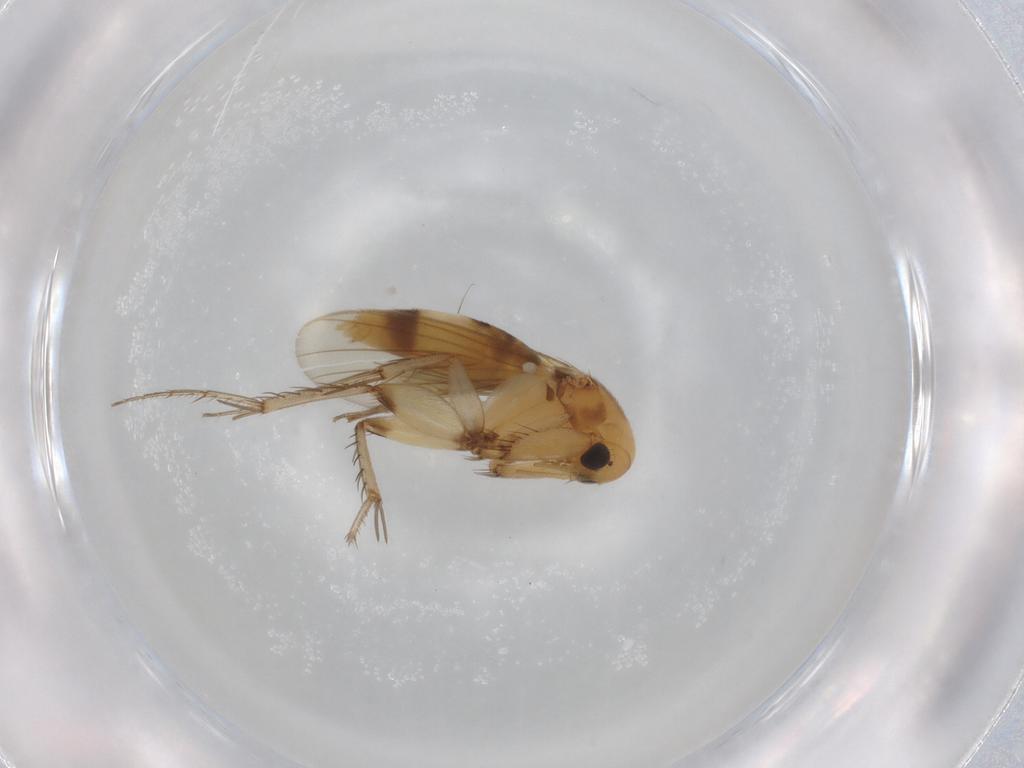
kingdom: Animalia
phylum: Arthropoda
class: Insecta
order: Diptera
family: Mycetophilidae
